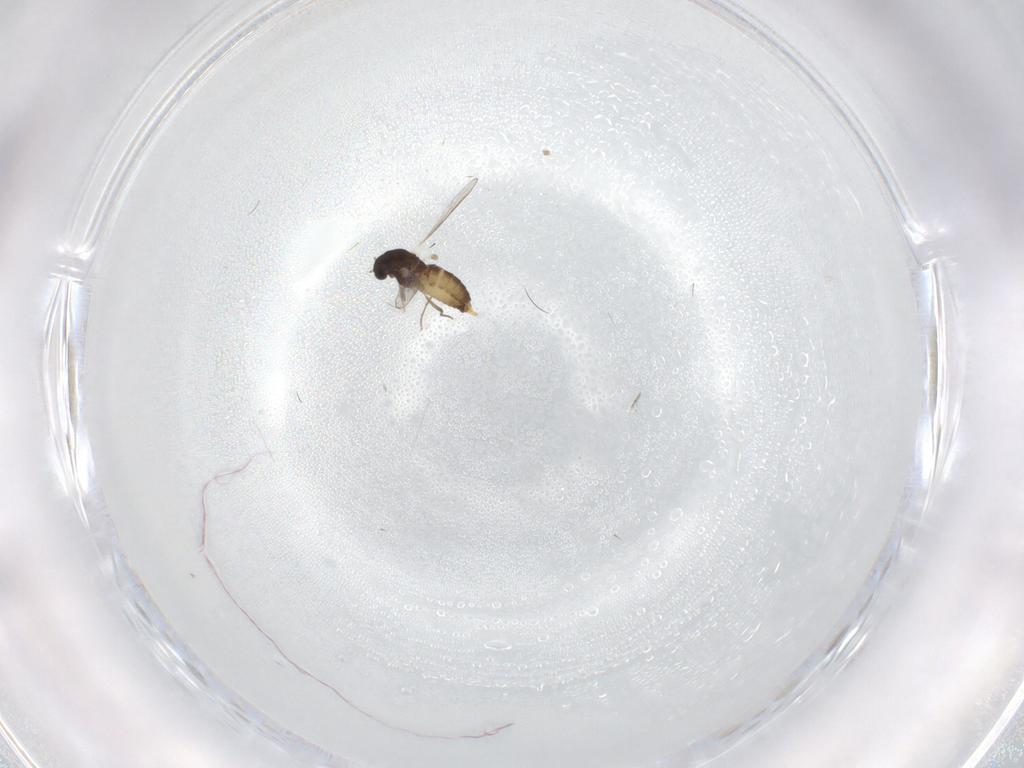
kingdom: Animalia
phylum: Arthropoda
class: Insecta
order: Diptera
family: Chironomidae
